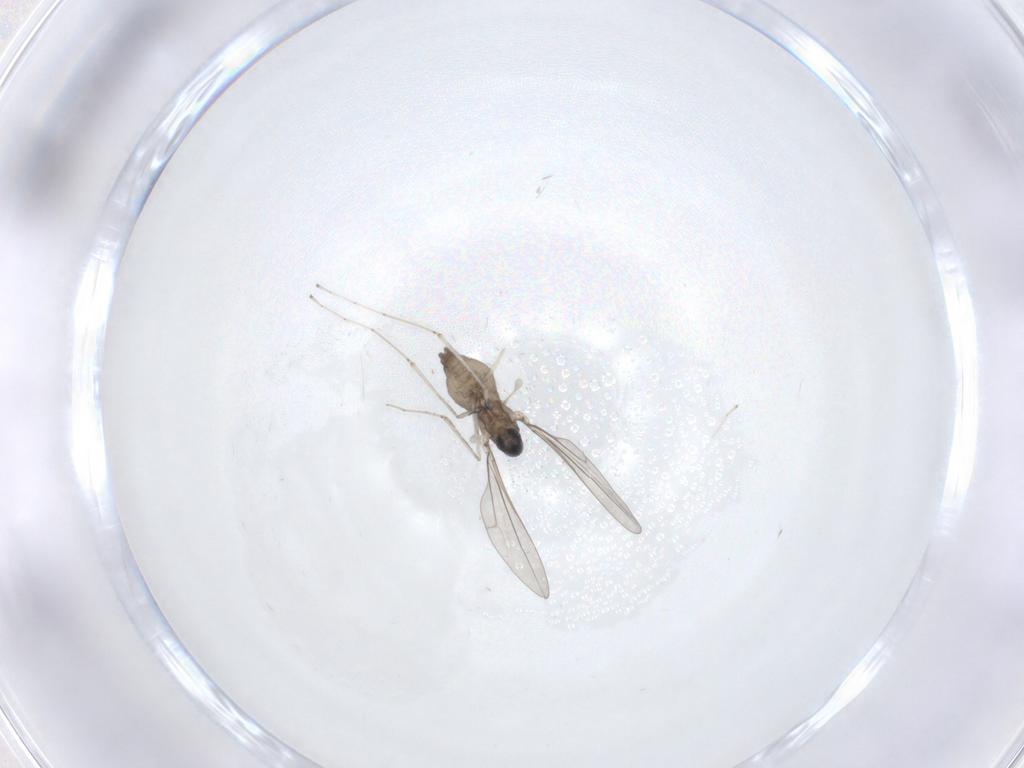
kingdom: Animalia
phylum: Arthropoda
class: Insecta
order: Diptera
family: Cecidomyiidae
